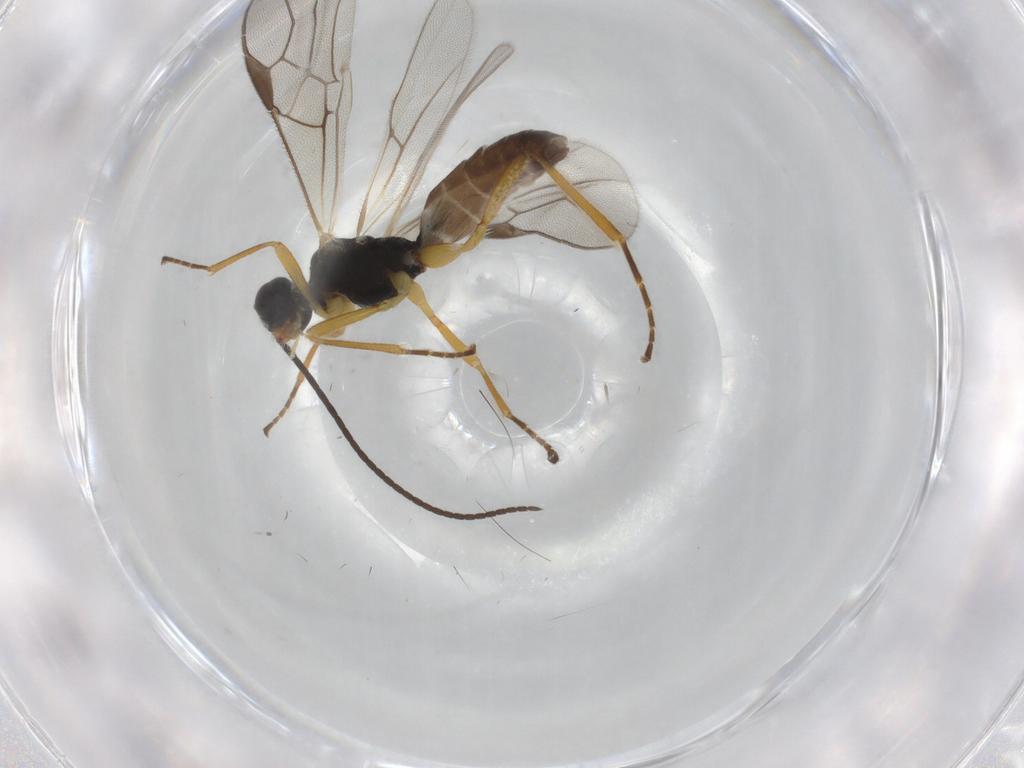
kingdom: Animalia
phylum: Arthropoda
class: Insecta
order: Hymenoptera
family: Braconidae
